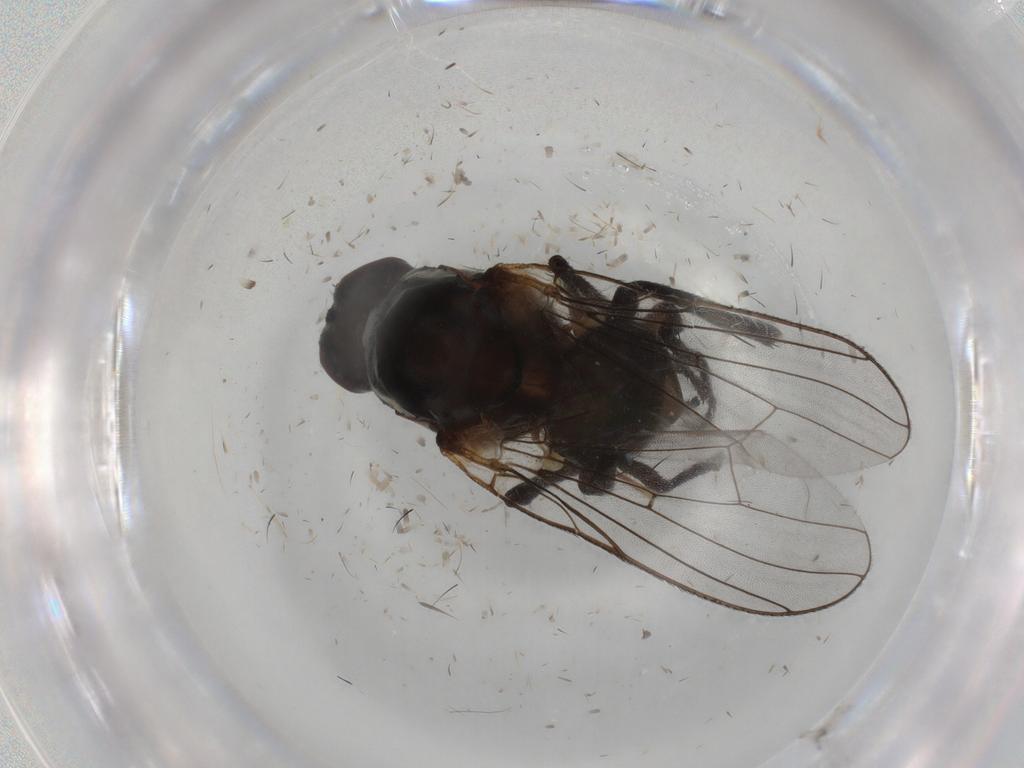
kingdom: Animalia
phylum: Arthropoda
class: Insecta
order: Diptera
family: Anthomyiidae
